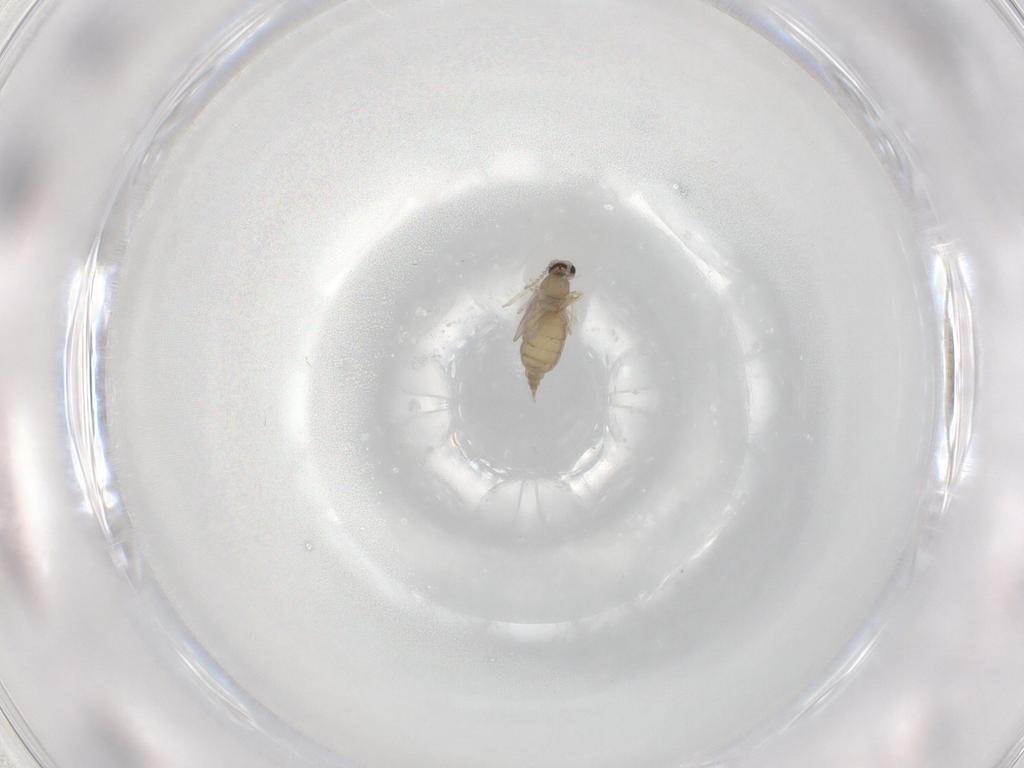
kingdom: Animalia
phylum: Arthropoda
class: Insecta
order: Diptera
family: Cecidomyiidae
